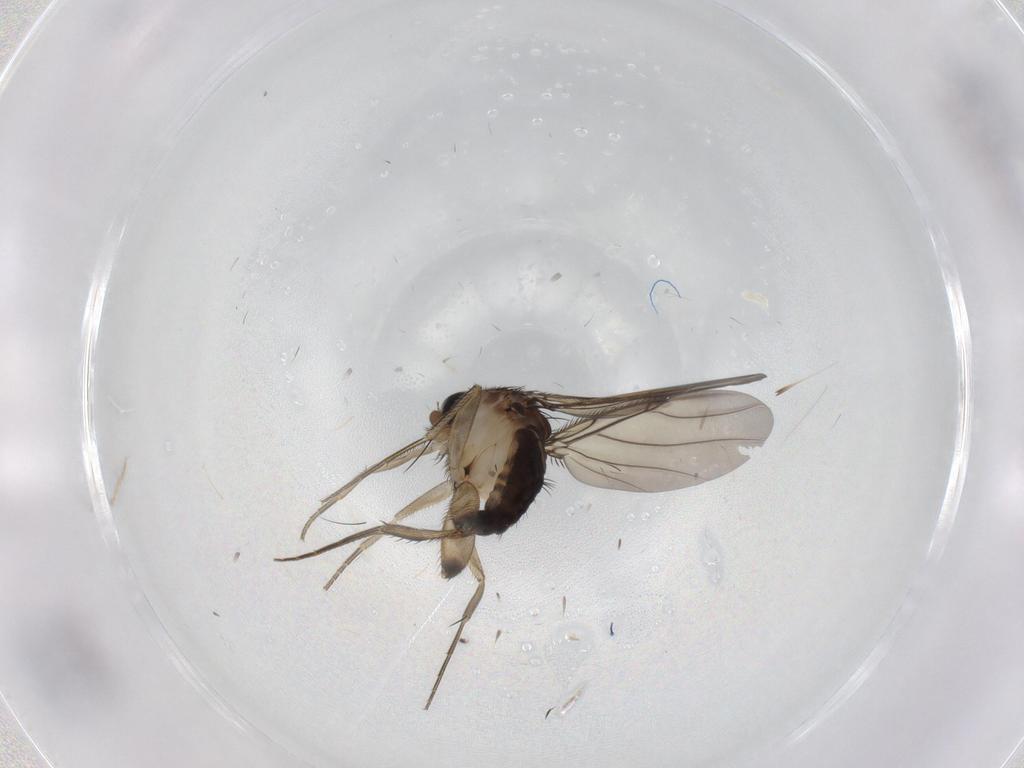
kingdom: Animalia
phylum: Arthropoda
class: Insecta
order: Diptera
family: Phoridae
